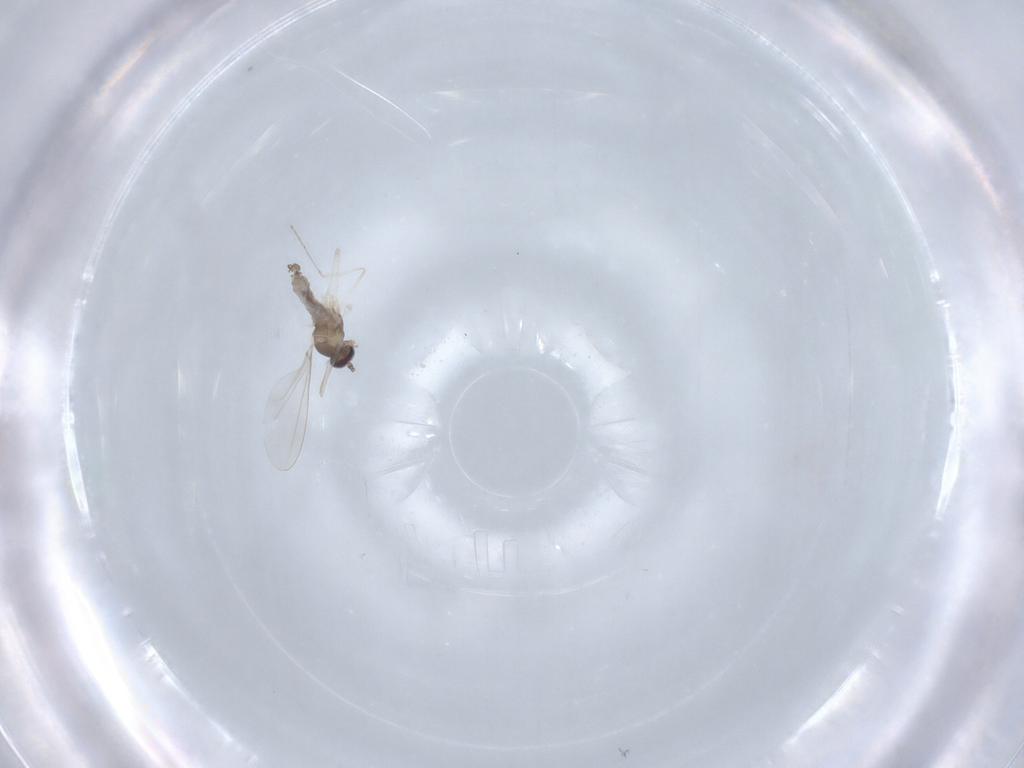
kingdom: Animalia
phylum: Arthropoda
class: Insecta
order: Diptera
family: Cecidomyiidae
